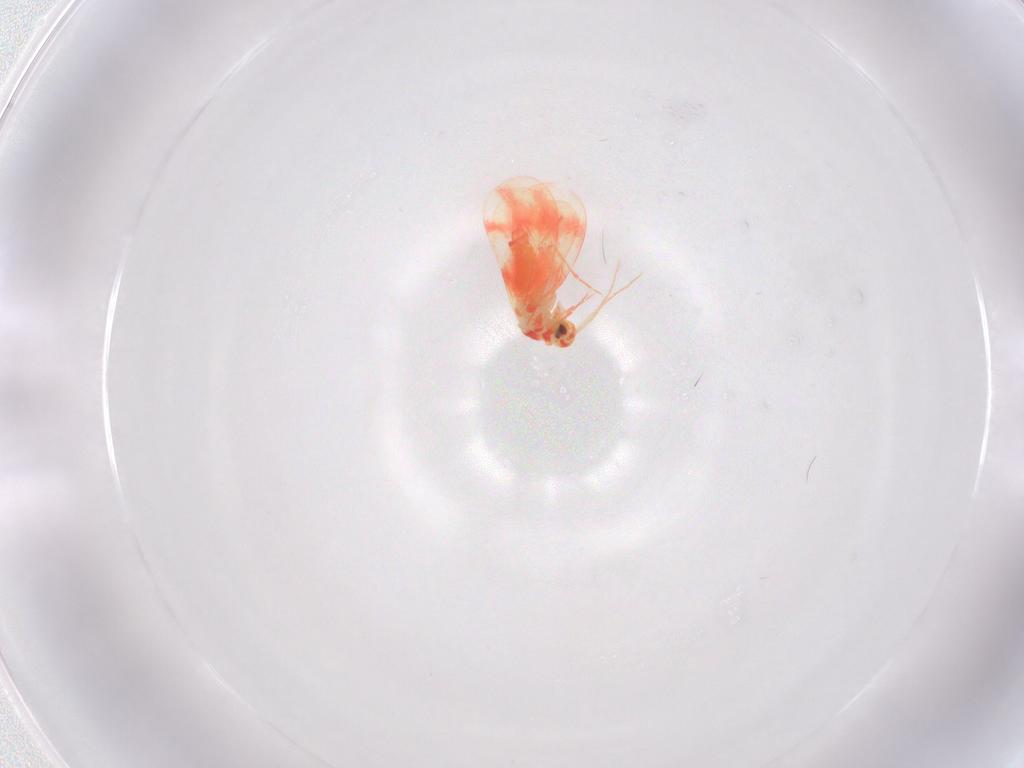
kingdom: Animalia
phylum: Arthropoda
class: Insecta
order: Hemiptera
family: Aleyrodidae
